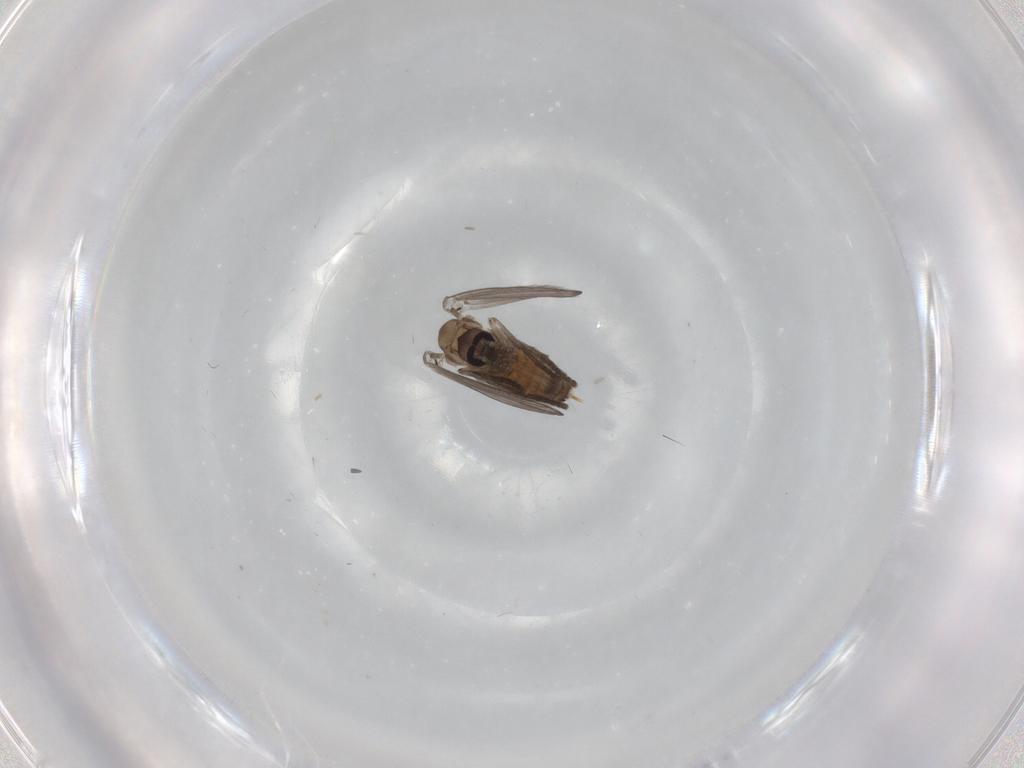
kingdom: Animalia
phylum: Arthropoda
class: Insecta
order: Diptera
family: Psychodidae
